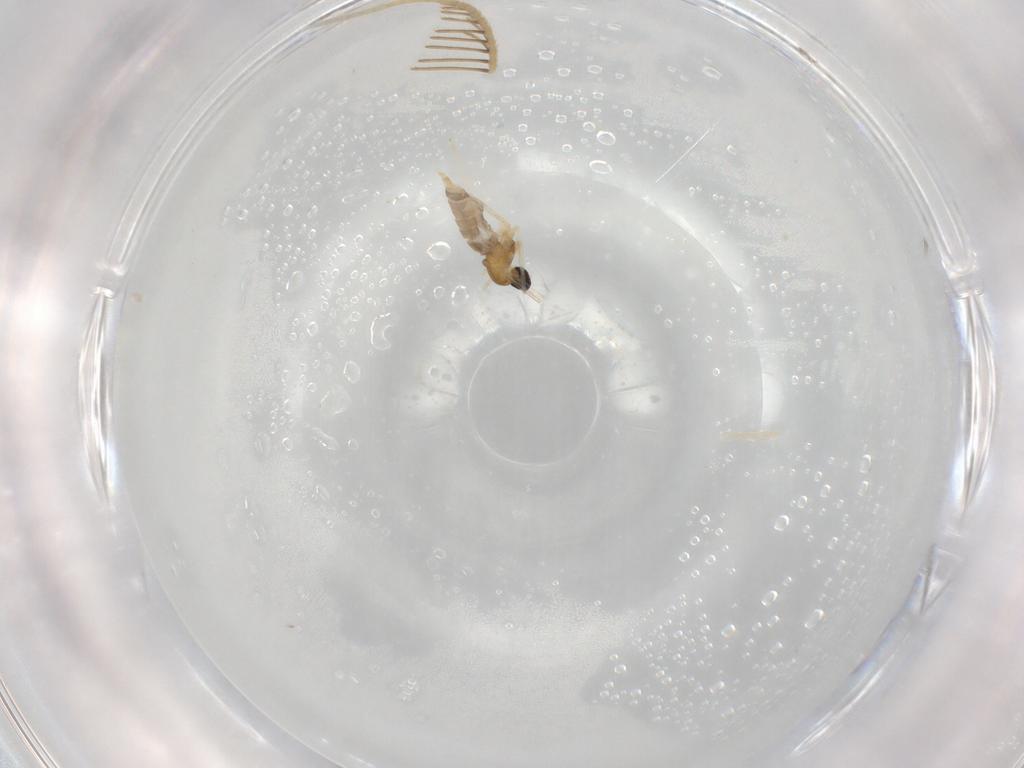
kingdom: Animalia
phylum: Arthropoda
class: Insecta
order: Diptera
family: Cecidomyiidae
